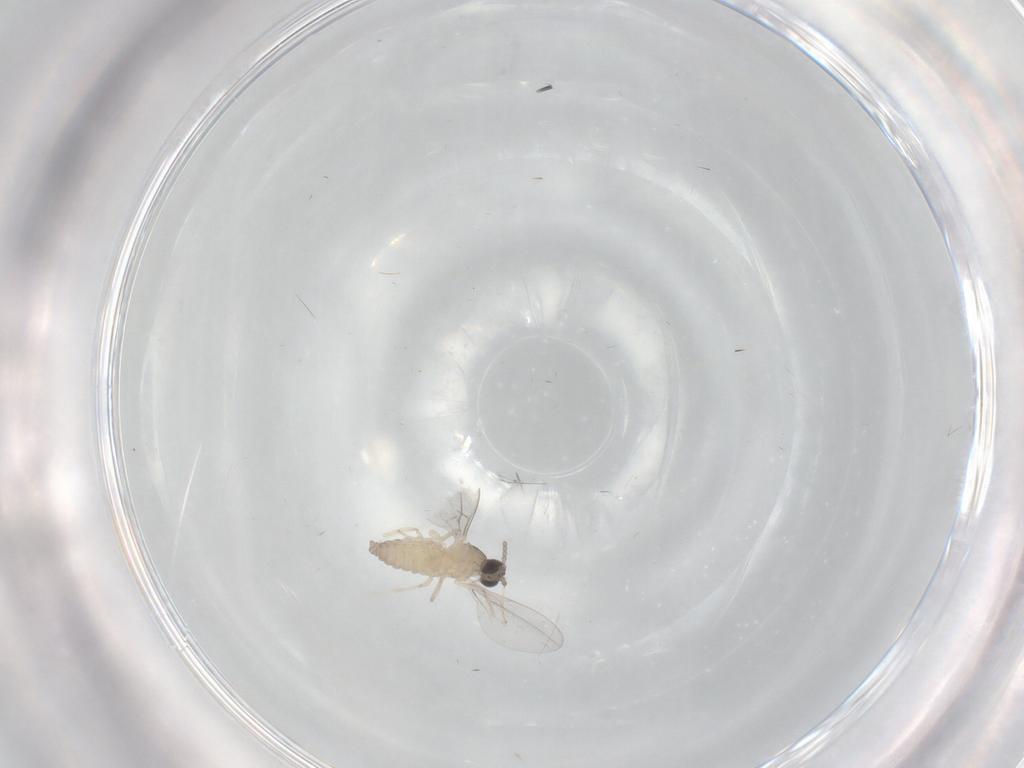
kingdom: Animalia
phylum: Arthropoda
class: Insecta
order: Diptera
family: Cecidomyiidae
